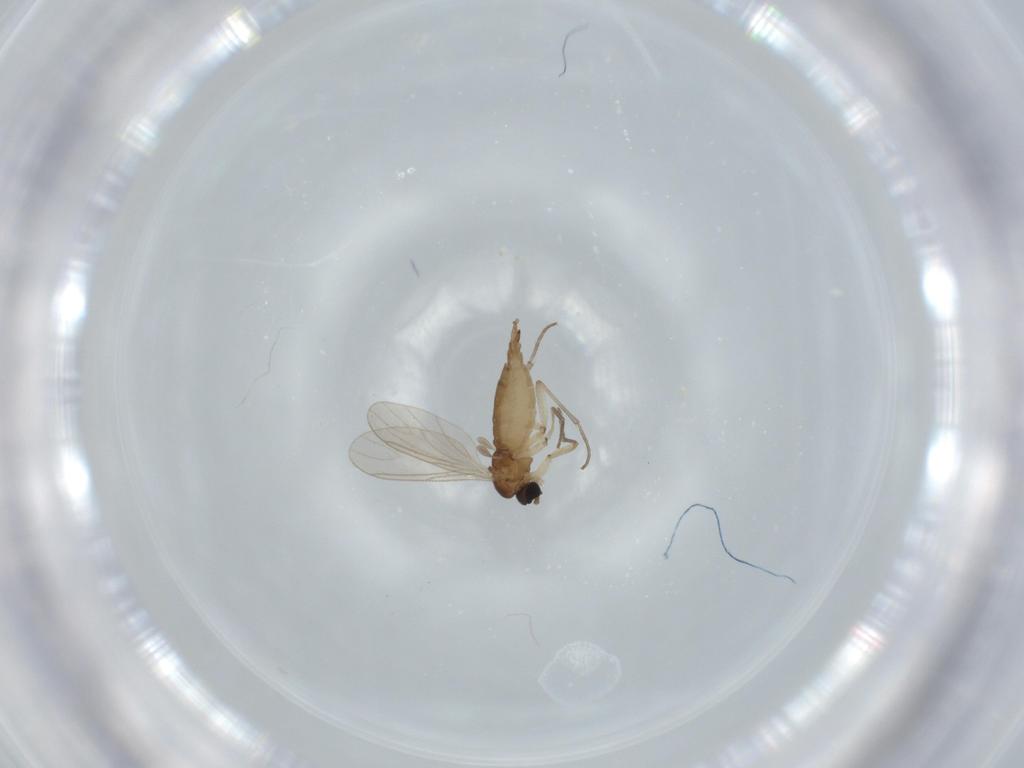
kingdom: Animalia
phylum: Arthropoda
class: Insecta
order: Diptera
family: Sciaridae
